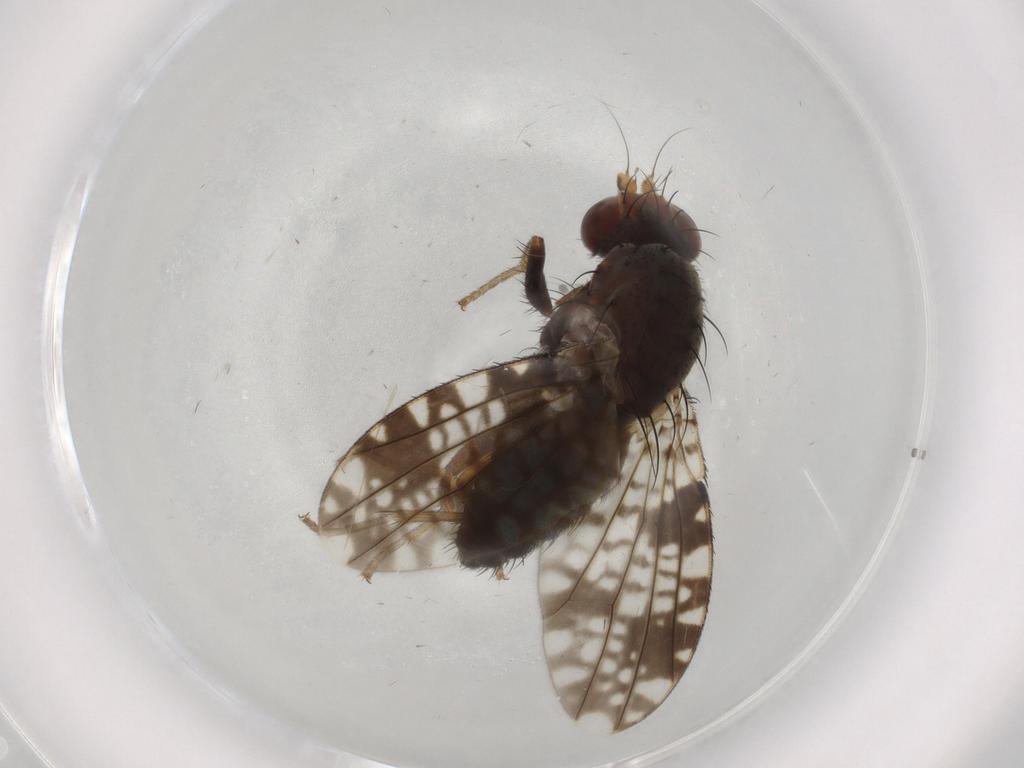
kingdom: Animalia
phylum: Arthropoda
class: Insecta
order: Diptera
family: Tephritidae
